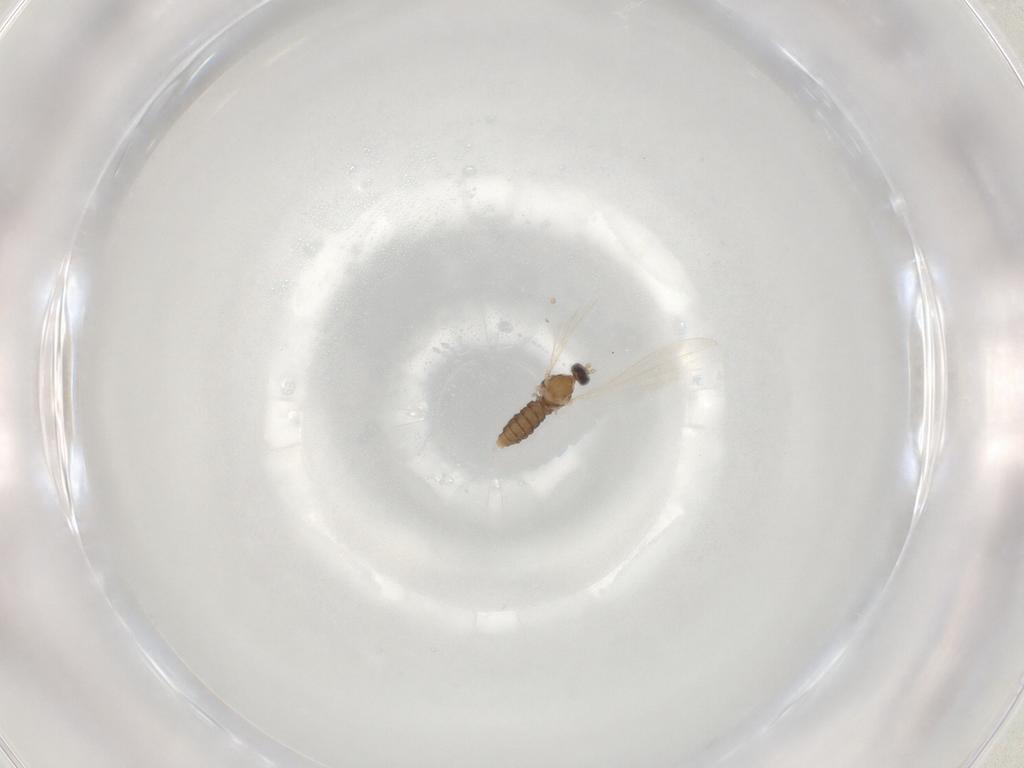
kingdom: Animalia
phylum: Arthropoda
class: Insecta
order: Diptera
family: Cecidomyiidae
